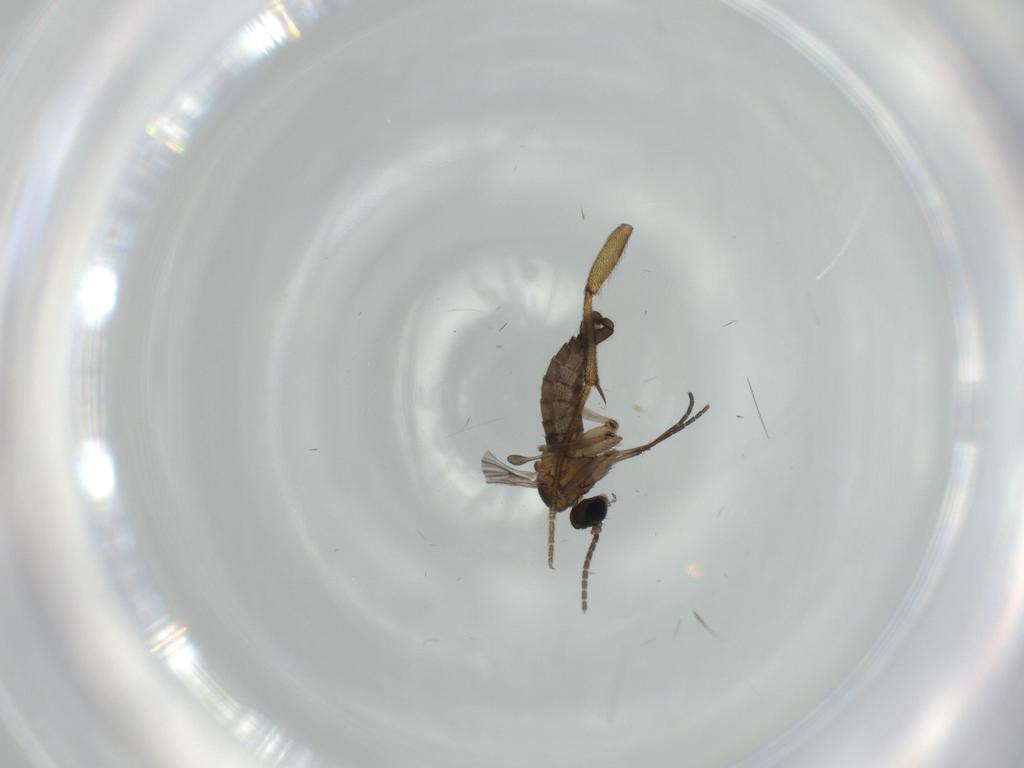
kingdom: Animalia
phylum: Arthropoda
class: Insecta
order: Diptera
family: Sciaridae
